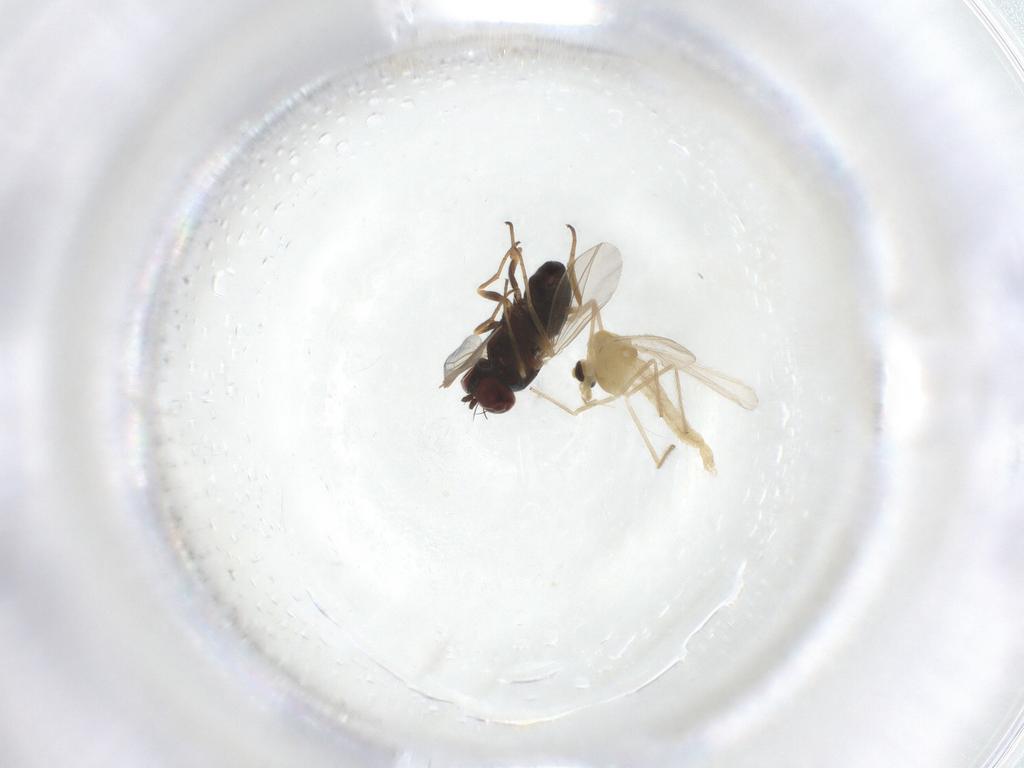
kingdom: Animalia
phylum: Arthropoda
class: Insecta
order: Diptera
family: Dolichopodidae
